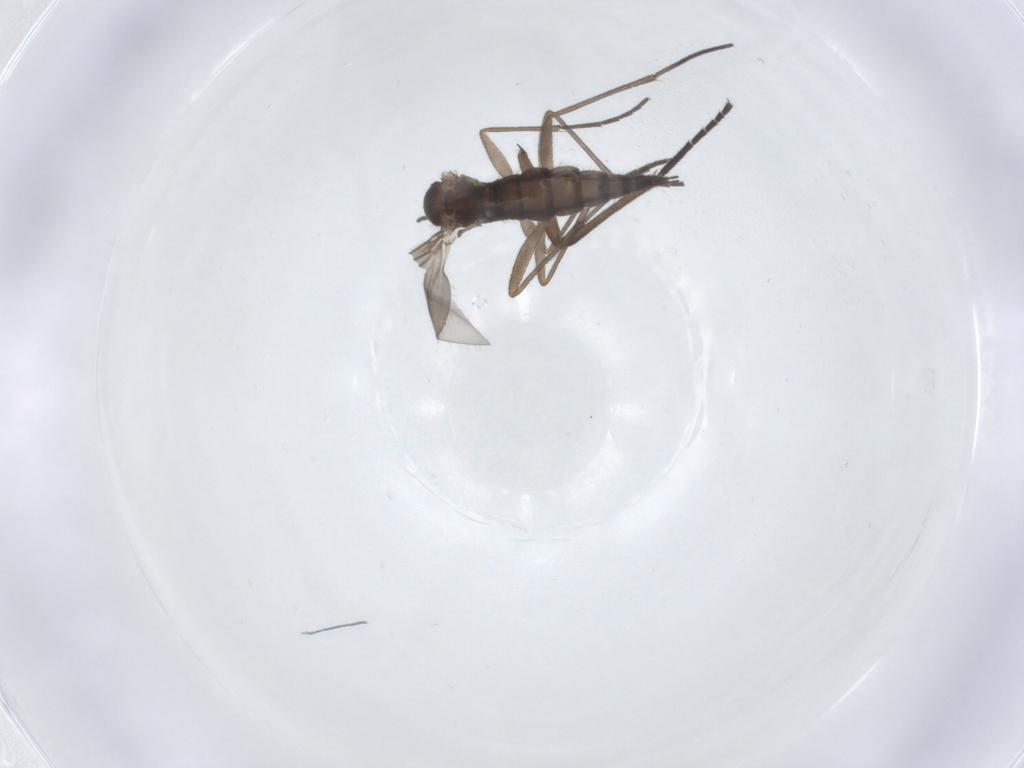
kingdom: Animalia
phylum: Arthropoda
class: Insecta
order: Diptera
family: Sciaridae
